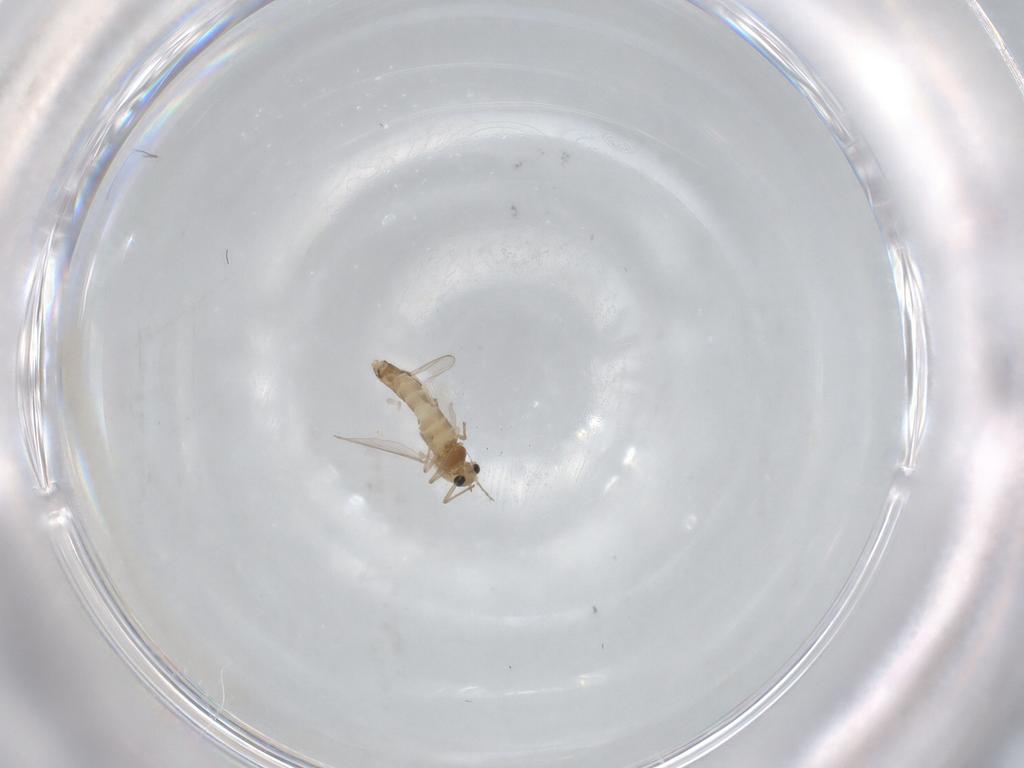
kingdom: Animalia
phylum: Arthropoda
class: Insecta
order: Diptera
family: Chironomidae
